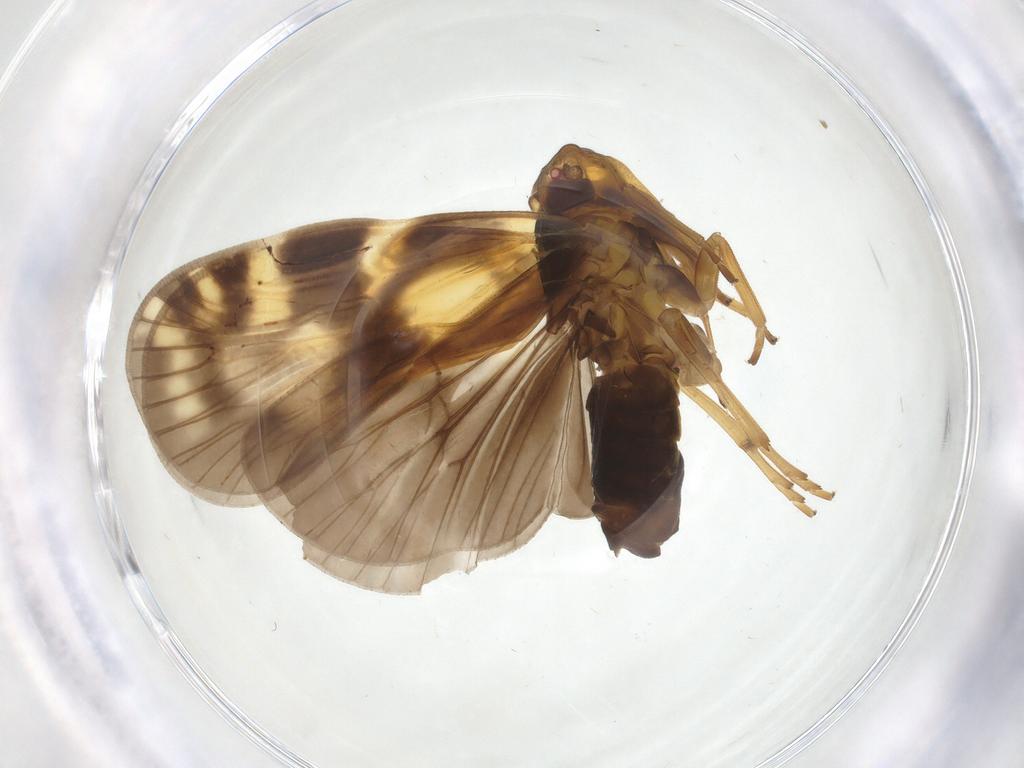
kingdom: Animalia
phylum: Arthropoda
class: Insecta
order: Hemiptera
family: Cixiidae
